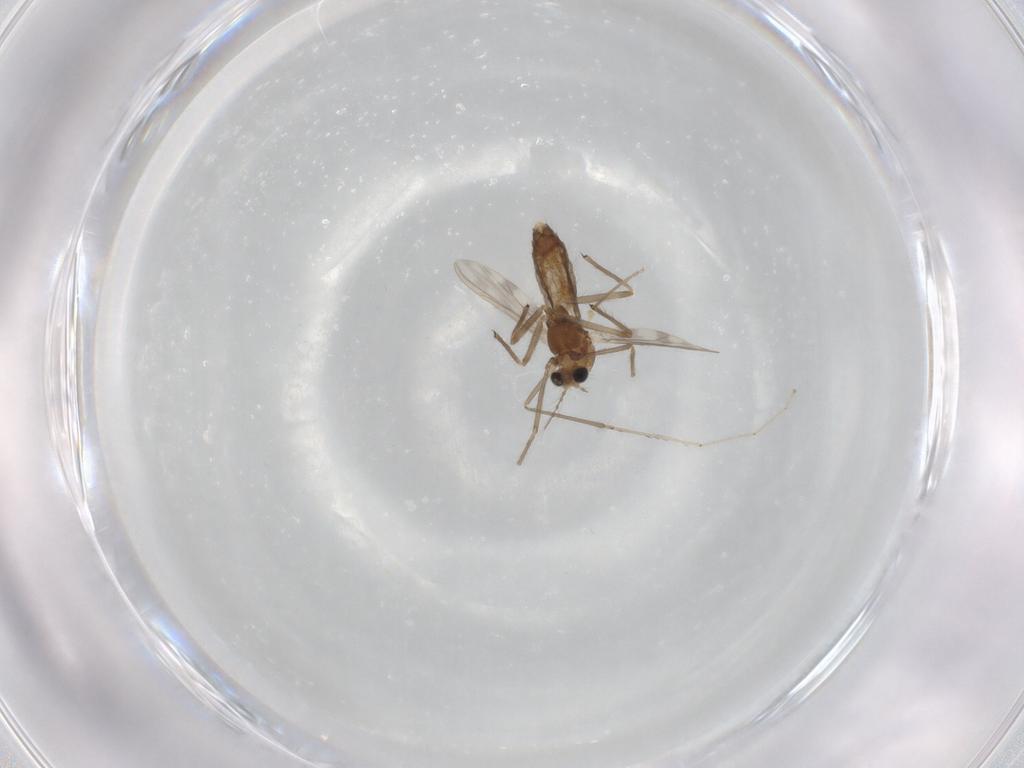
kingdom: Animalia
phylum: Arthropoda
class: Insecta
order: Diptera
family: Chironomidae
